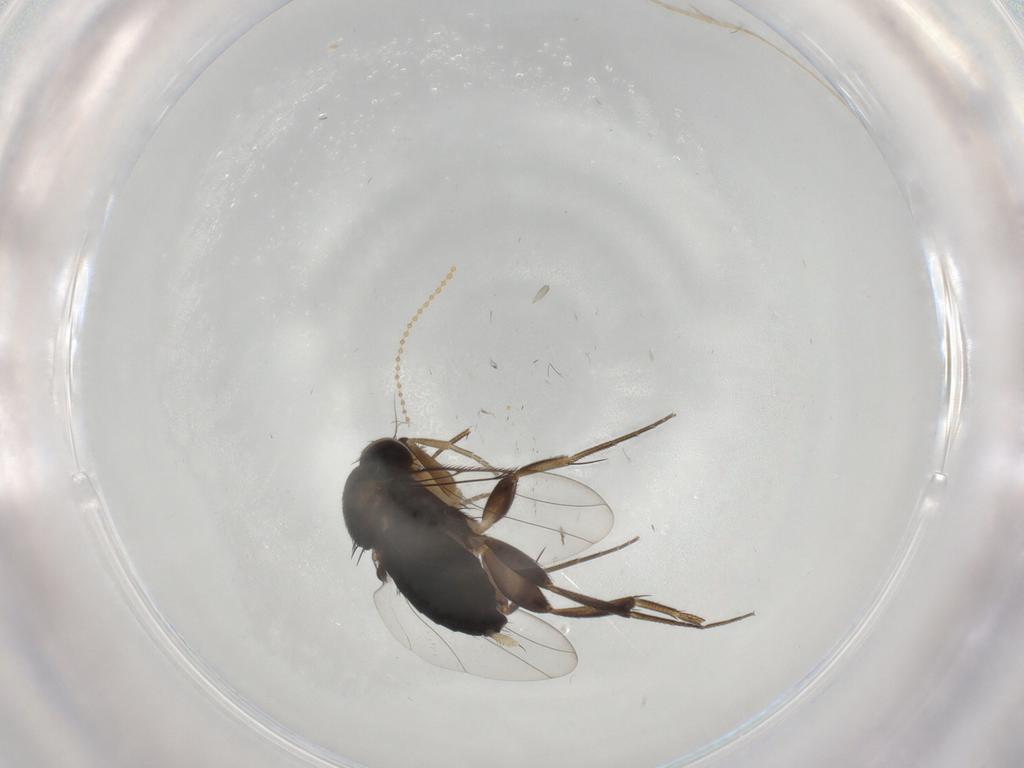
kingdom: Animalia
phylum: Arthropoda
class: Insecta
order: Diptera
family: Phoridae
